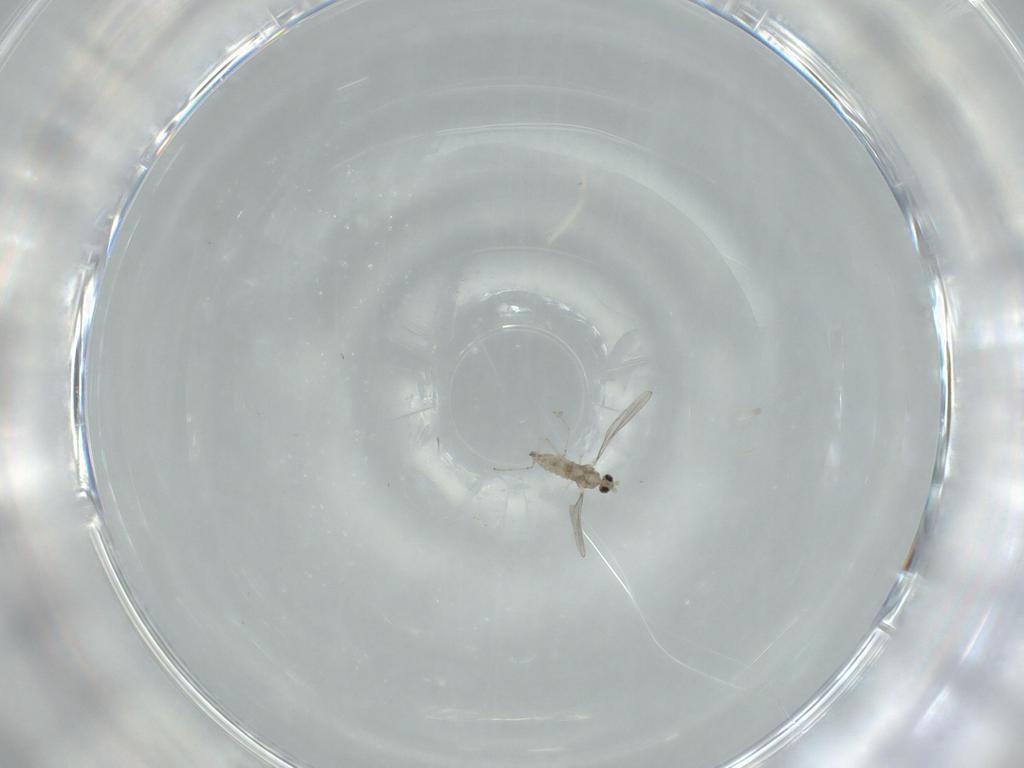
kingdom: Animalia
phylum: Arthropoda
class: Insecta
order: Diptera
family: Sciaridae
